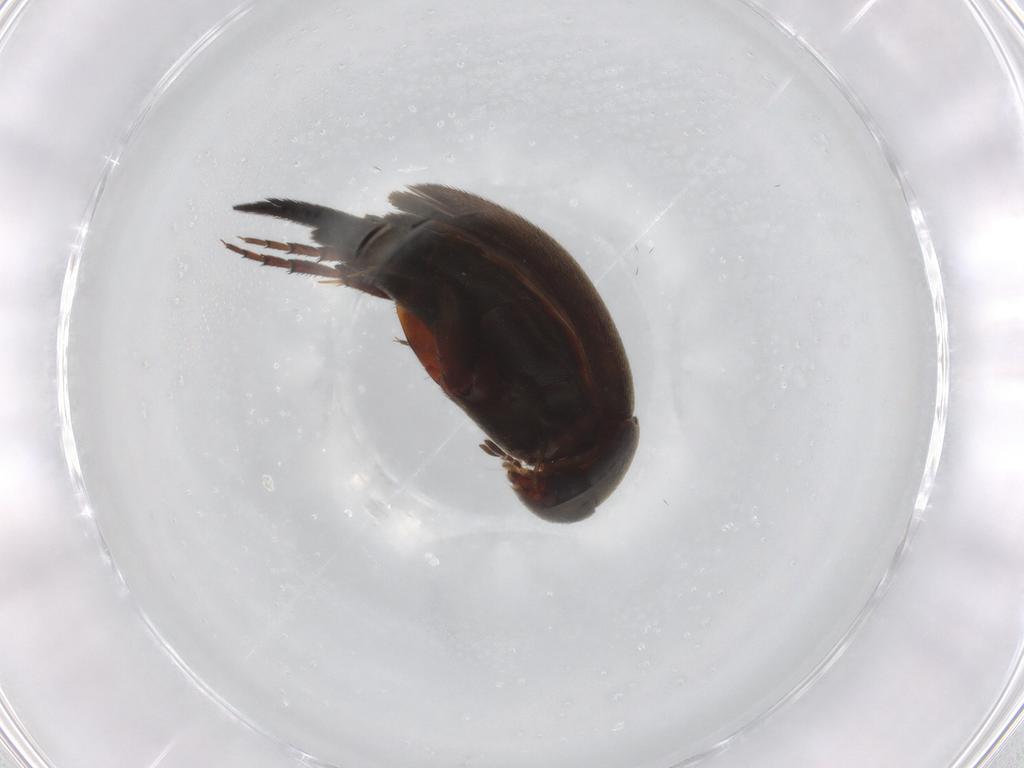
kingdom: Animalia
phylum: Arthropoda
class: Insecta
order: Coleoptera
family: Mordellidae
